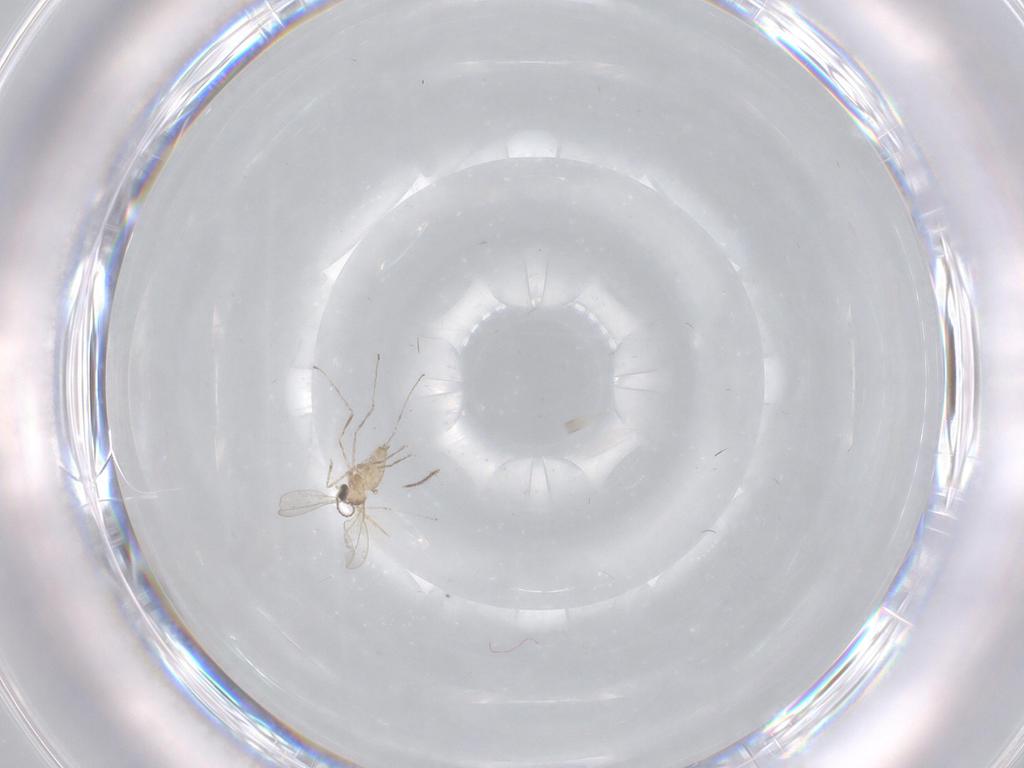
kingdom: Animalia
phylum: Arthropoda
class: Insecta
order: Diptera
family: Cecidomyiidae
